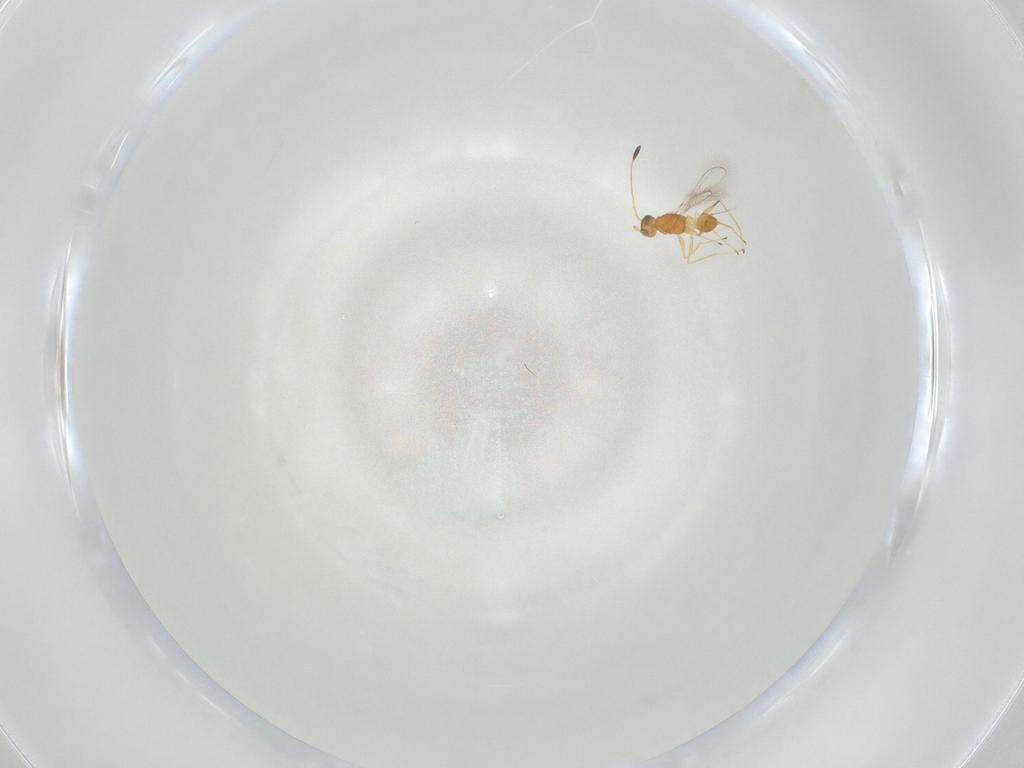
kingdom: Animalia
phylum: Arthropoda
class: Insecta
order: Hymenoptera
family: Mymaridae
